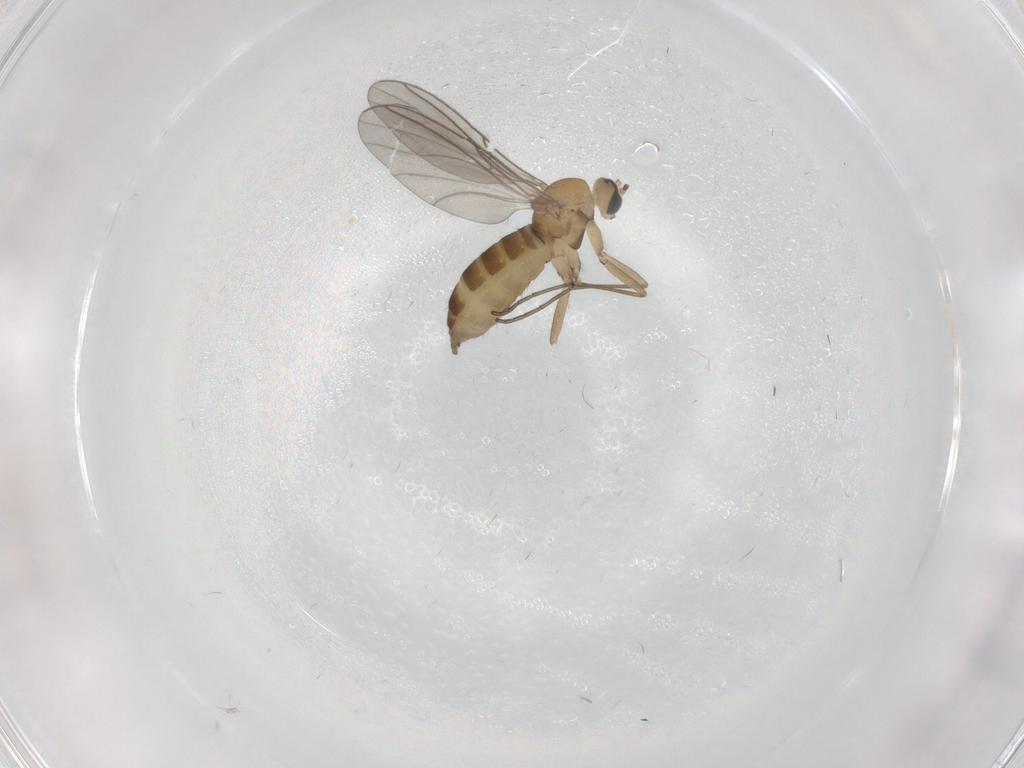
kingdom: Animalia
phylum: Arthropoda
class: Insecta
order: Diptera
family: Sciaridae
